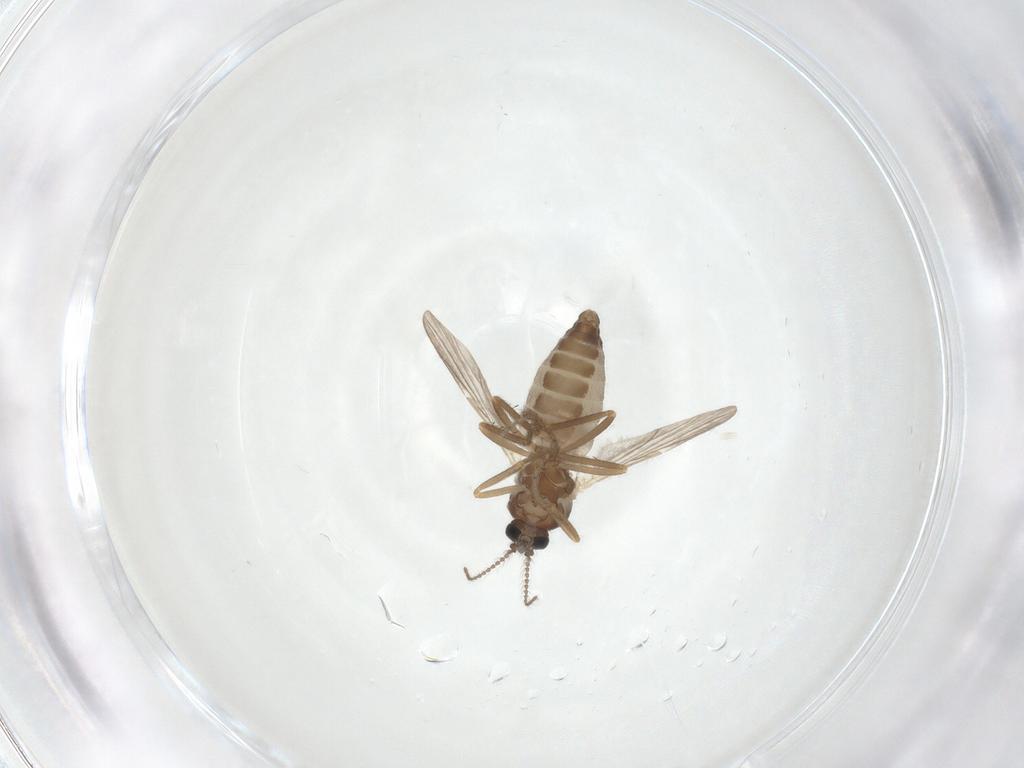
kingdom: Animalia
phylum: Arthropoda
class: Insecta
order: Diptera
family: Ceratopogonidae
